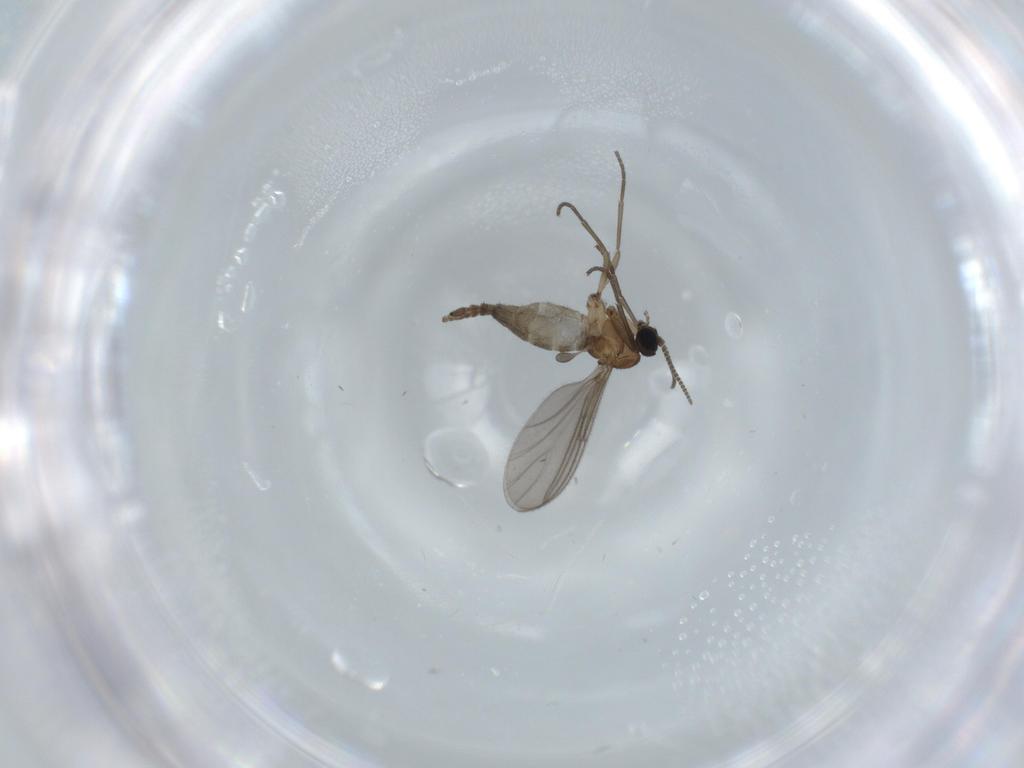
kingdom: Animalia
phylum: Arthropoda
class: Insecta
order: Diptera
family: Sciaridae
